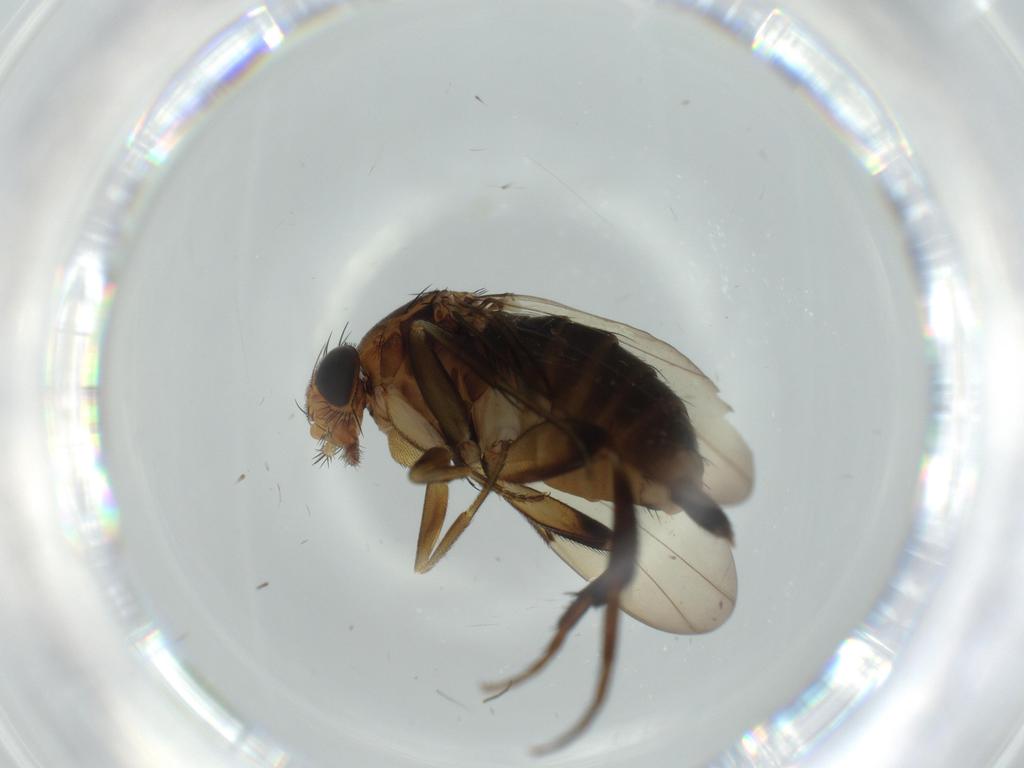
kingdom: Animalia
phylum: Arthropoda
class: Insecta
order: Diptera
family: Phoridae
